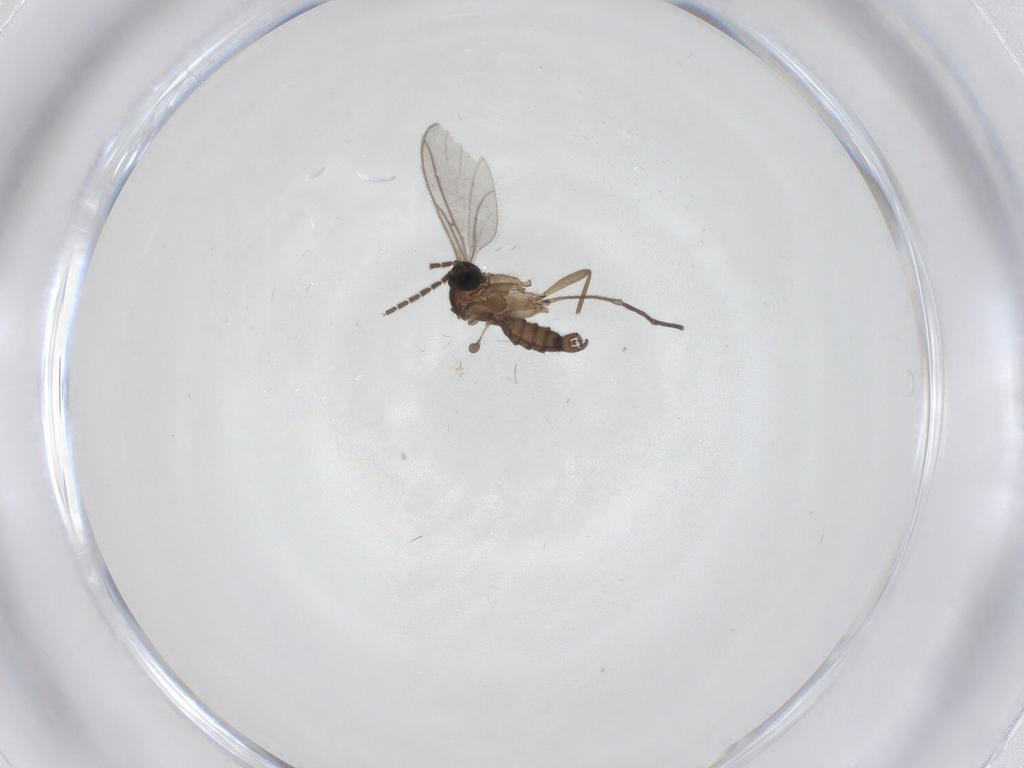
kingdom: Animalia
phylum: Arthropoda
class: Insecta
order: Diptera
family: Sciaridae
